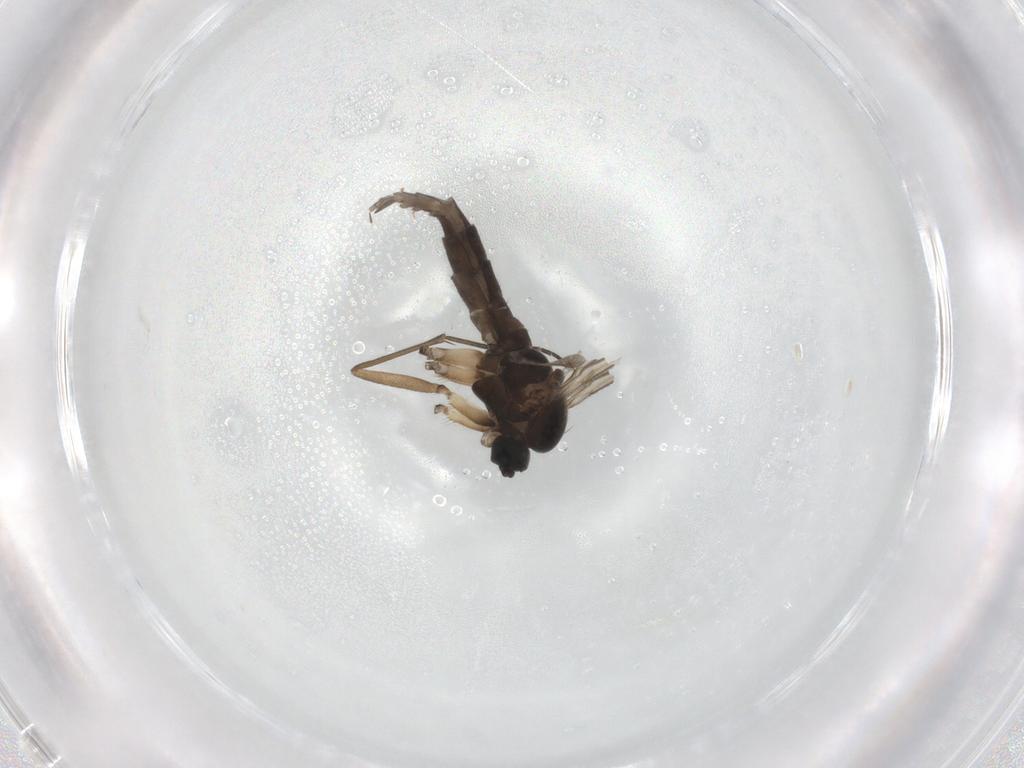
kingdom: Animalia
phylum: Arthropoda
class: Insecta
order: Diptera
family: Sciaridae
